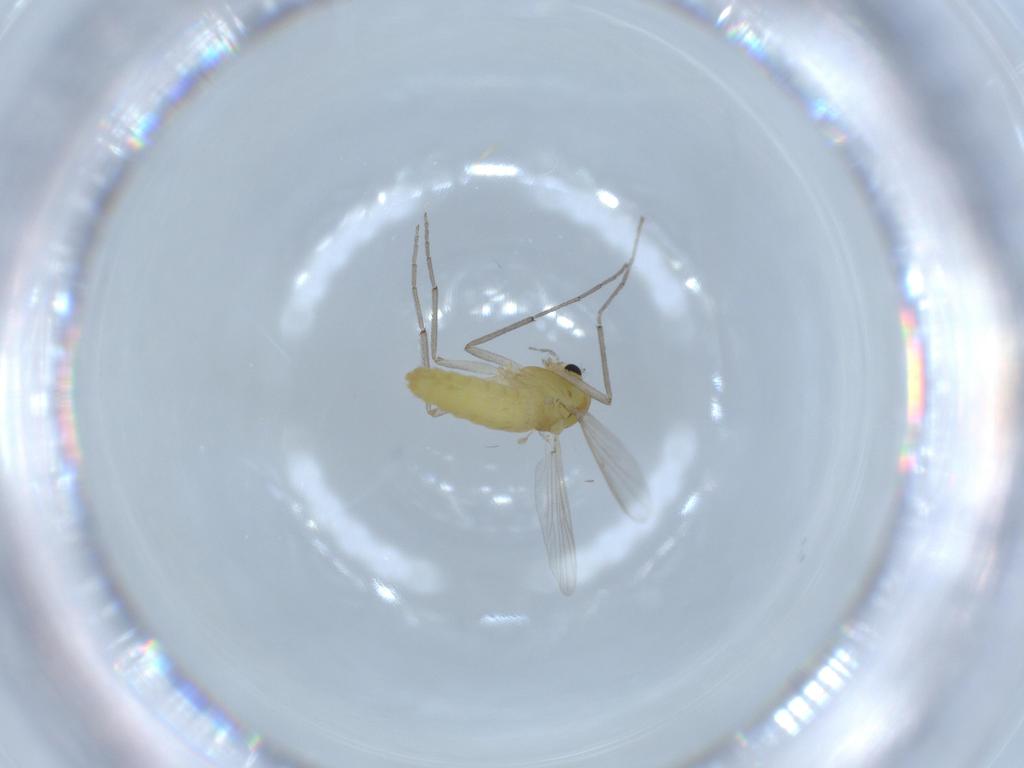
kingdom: Animalia
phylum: Arthropoda
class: Insecta
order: Diptera
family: Chironomidae
